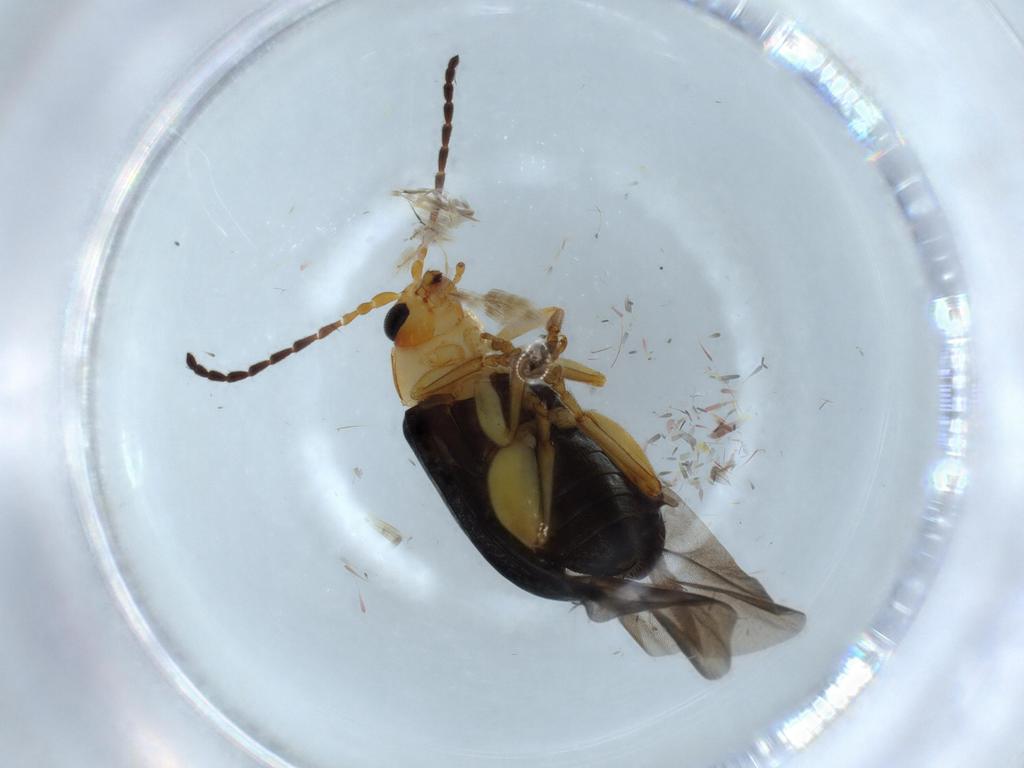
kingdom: Animalia
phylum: Arthropoda
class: Insecta
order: Coleoptera
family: Chrysomelidae
